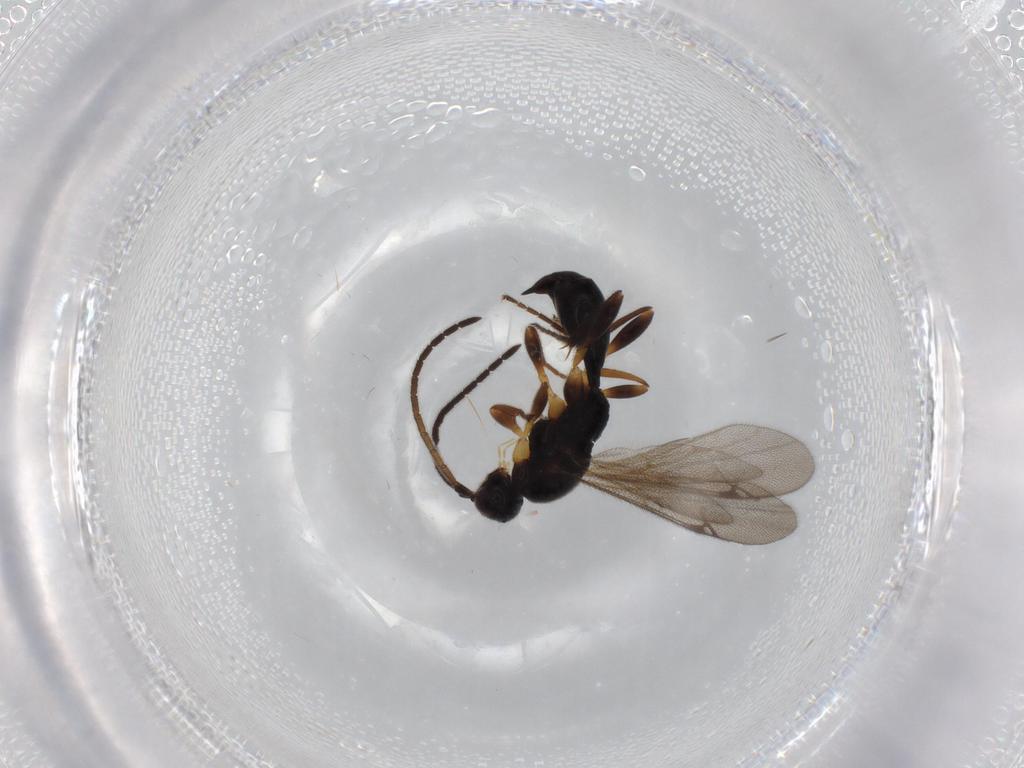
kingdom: Animalia
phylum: Arthropoda
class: Insecta
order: Hymenoptera
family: Proctotrupidae
